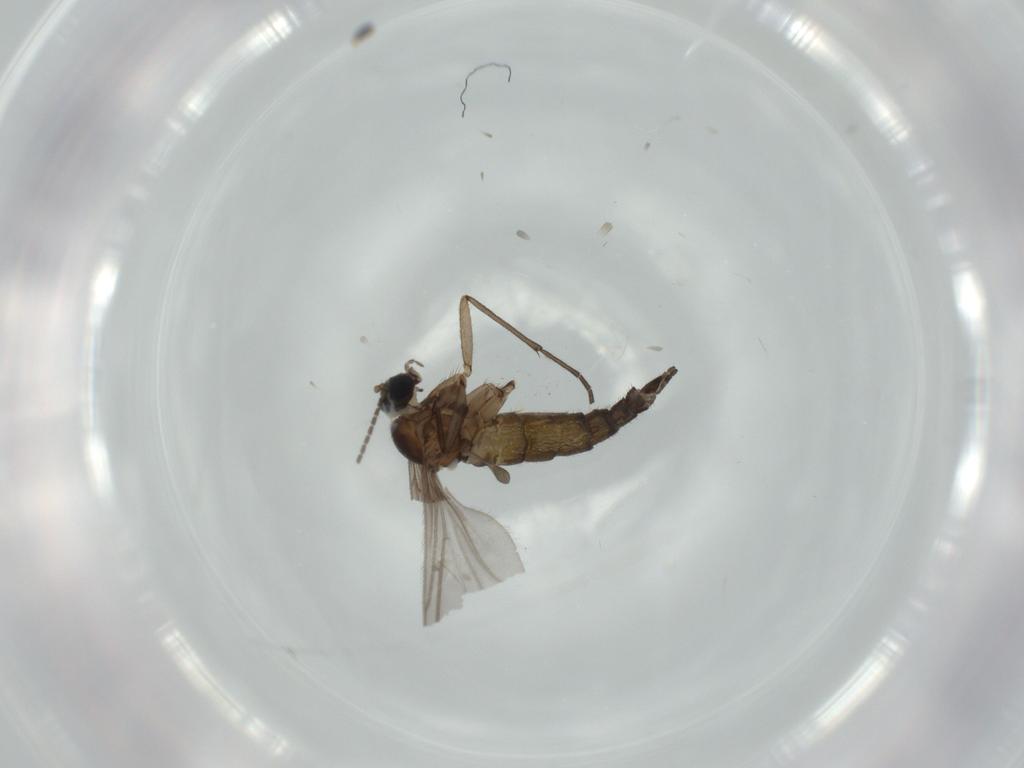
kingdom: Animalia
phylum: Arthropoda
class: Insecta
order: Diptera
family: Sciaridae
